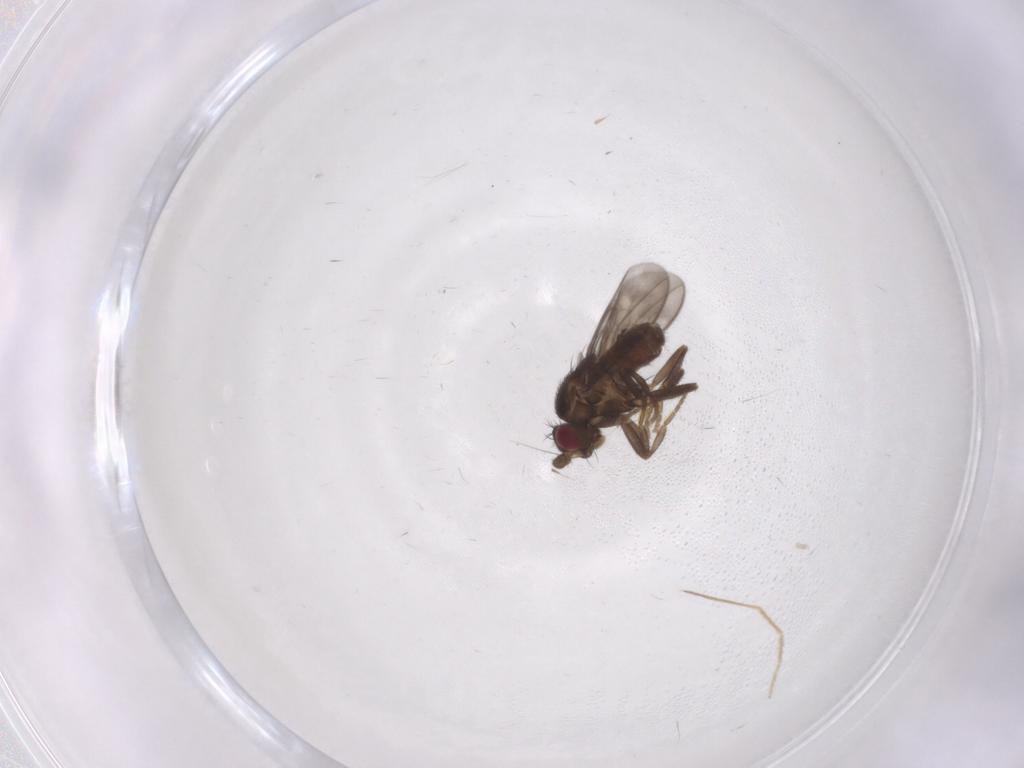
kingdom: Animalia
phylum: Arthropoda
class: Insecta
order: Diptera
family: Sphaeroceridae
